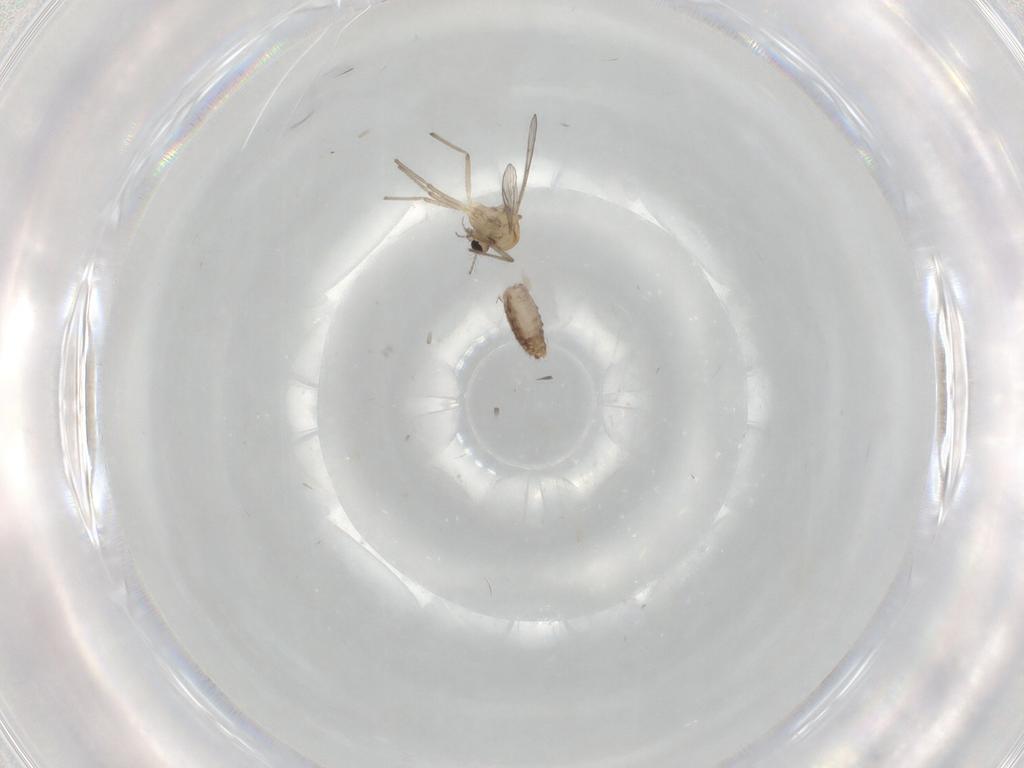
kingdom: Animalia
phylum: Arthropoda
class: Insecta
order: Diptera
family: Chironomidae
